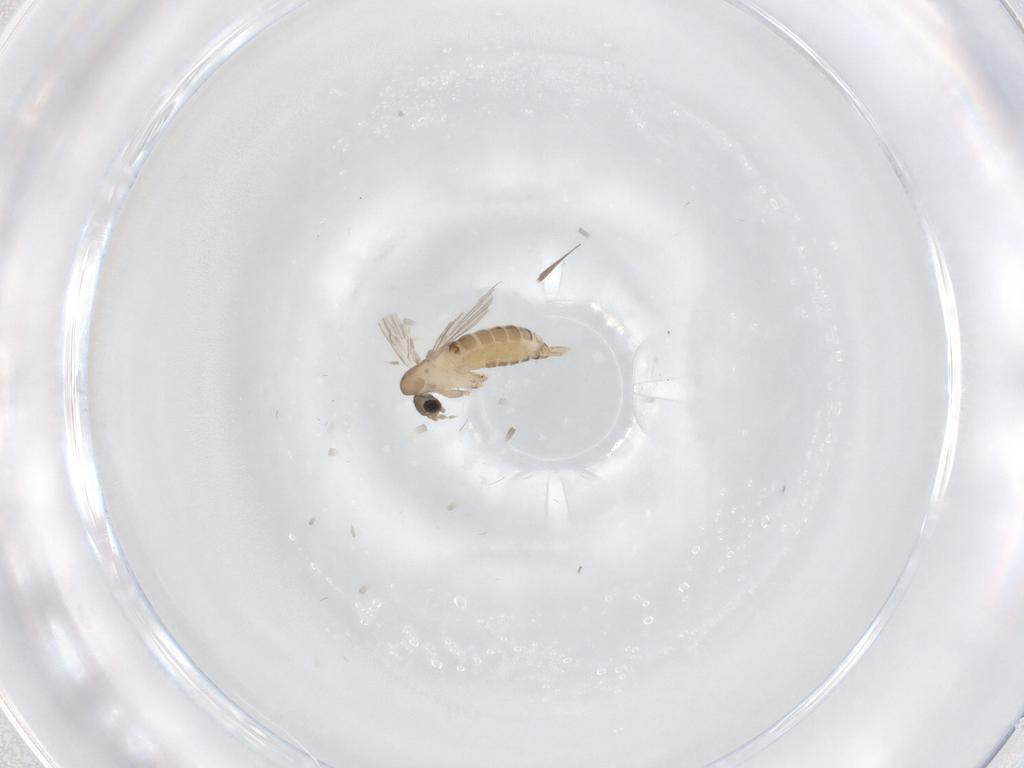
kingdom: Animalia
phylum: Arthropoda
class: Insecta
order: Diptera
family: Psychodidae
